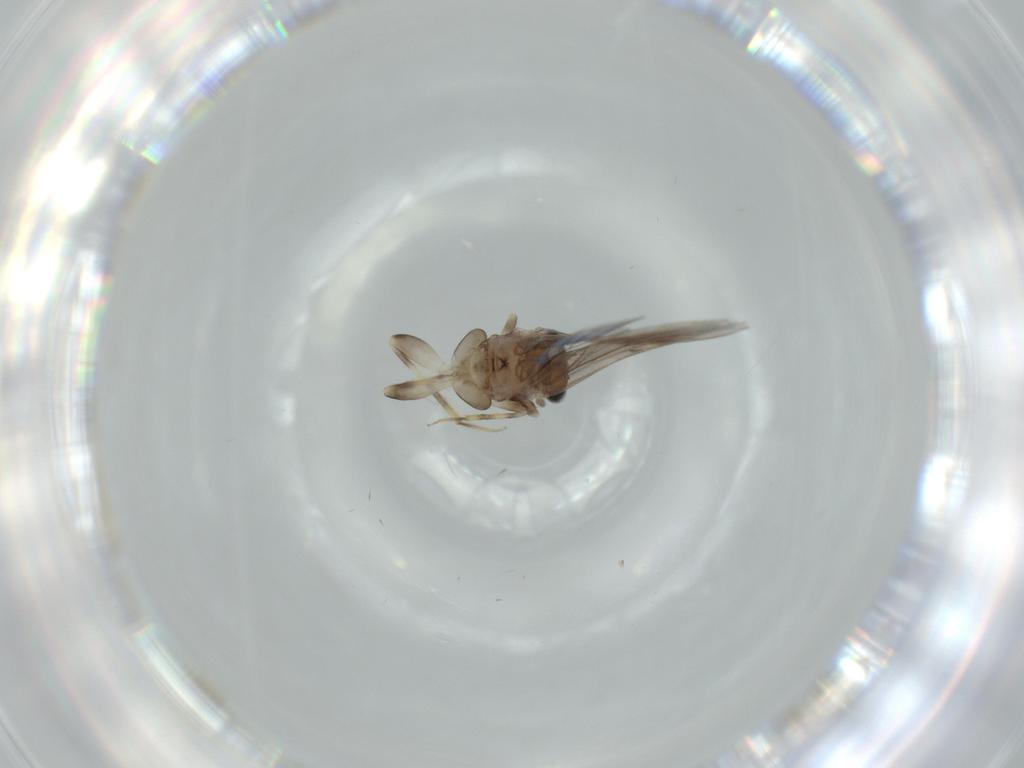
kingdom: Animalia
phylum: Arthropoda
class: Insecta
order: Psocodea
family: Lepidopsocidae
